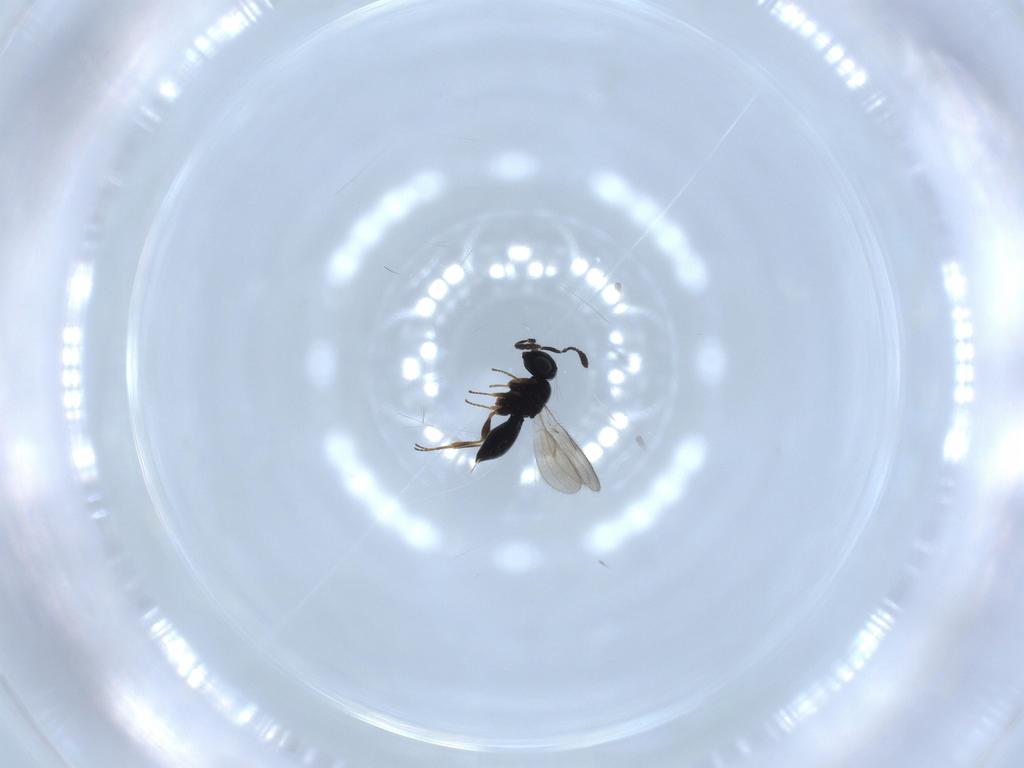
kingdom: Animalia
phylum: Arthropoda
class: Insecta
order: Hymenoptera
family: Scelionidae
